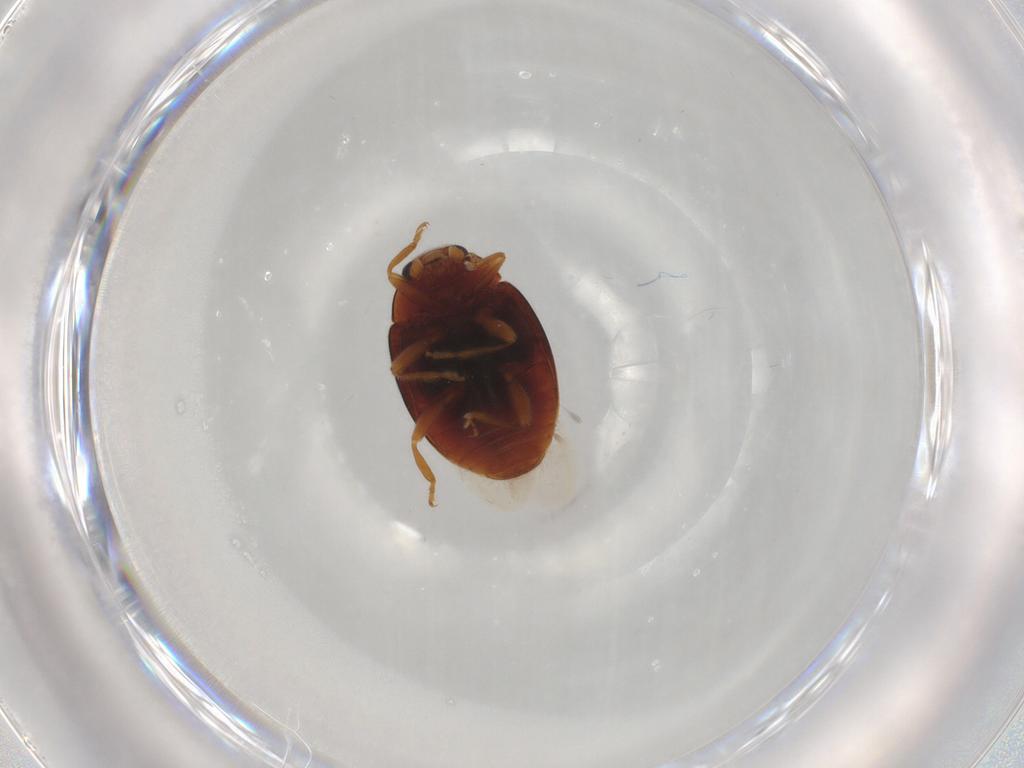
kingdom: Animalia
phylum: Arthropoda
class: Insecta
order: Coleoptera
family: Coccinellidae
